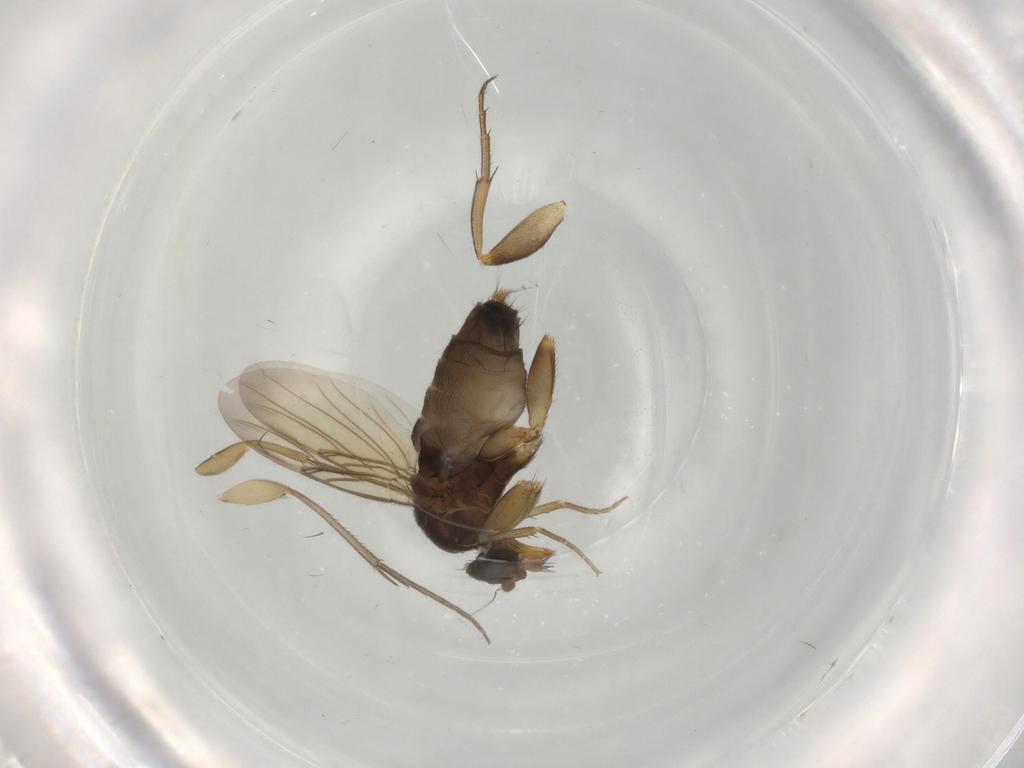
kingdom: Animalia
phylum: Arthropoda
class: Insecta
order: Diptera
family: Phoridae
